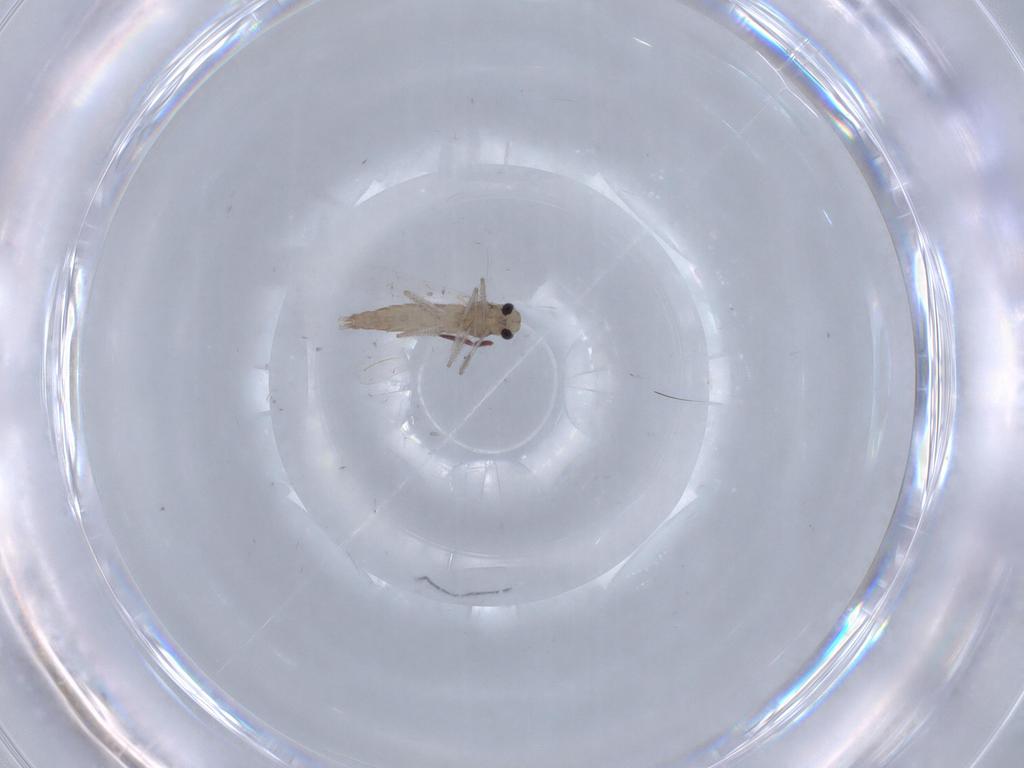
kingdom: Animalia
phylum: Arthropoda
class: Insecta
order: Diptera
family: Chironomidae
